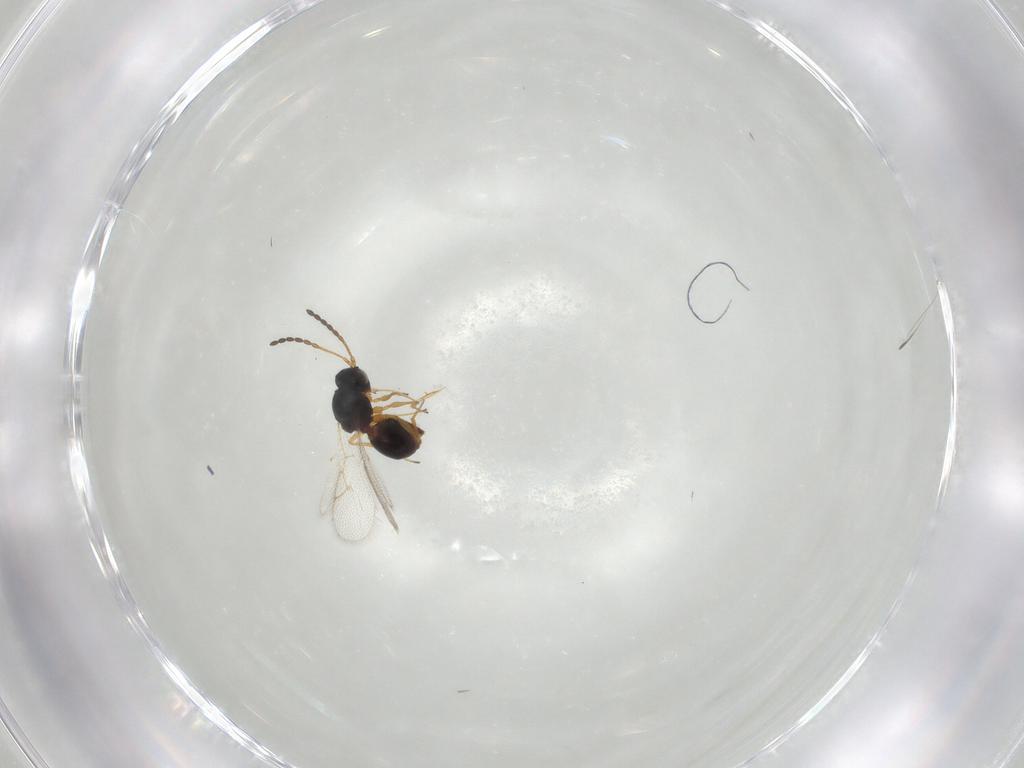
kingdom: Animalia
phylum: Arthropoda
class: Insecta
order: Hymenoptera
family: Figitidae
